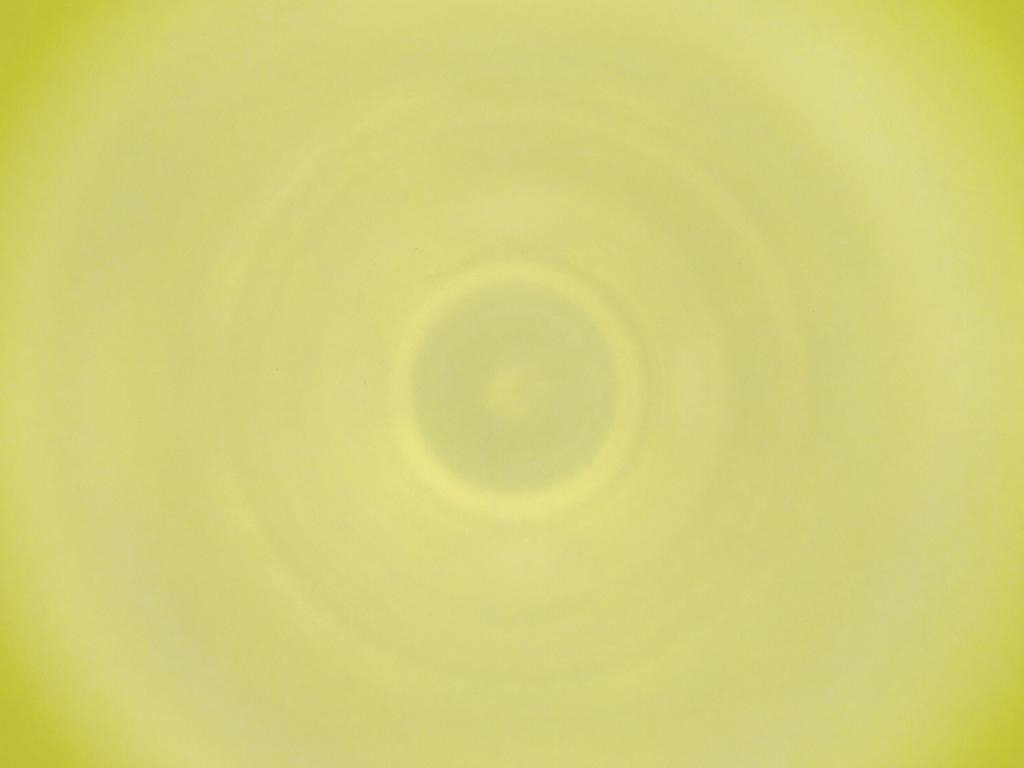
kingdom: Animalia
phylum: Arthropoda
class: Insecta
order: Diptera
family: Cecidomyiidae
